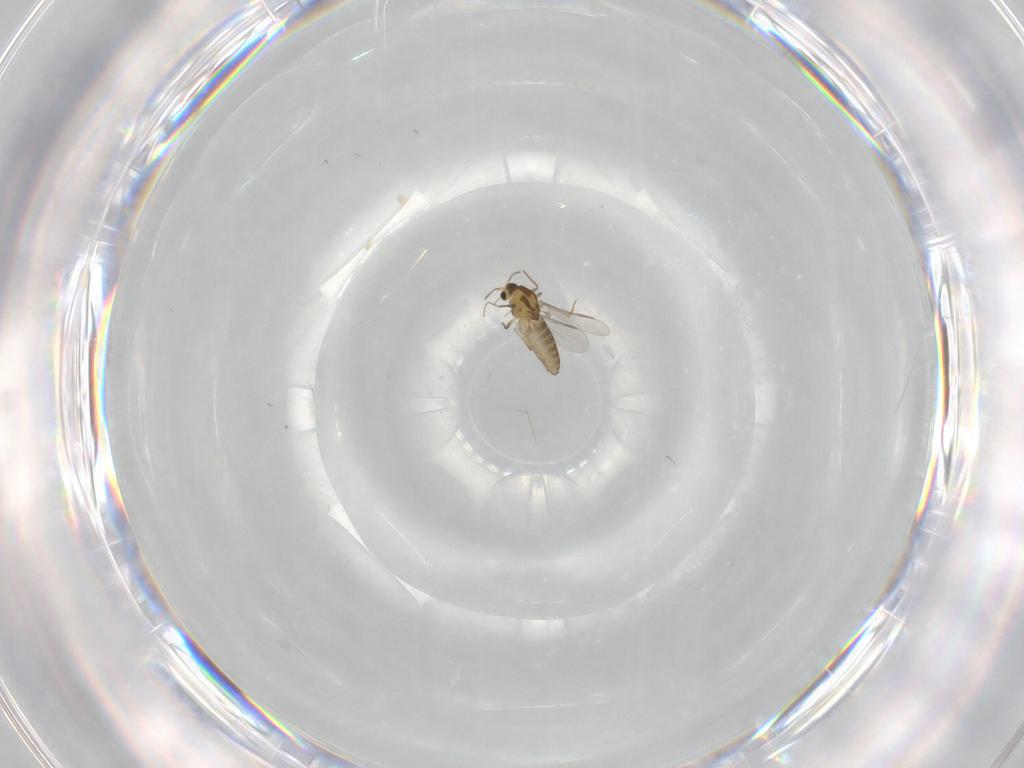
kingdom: Animalia
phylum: Arthropoda
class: Insecta
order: Diptera
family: Chironomidae
